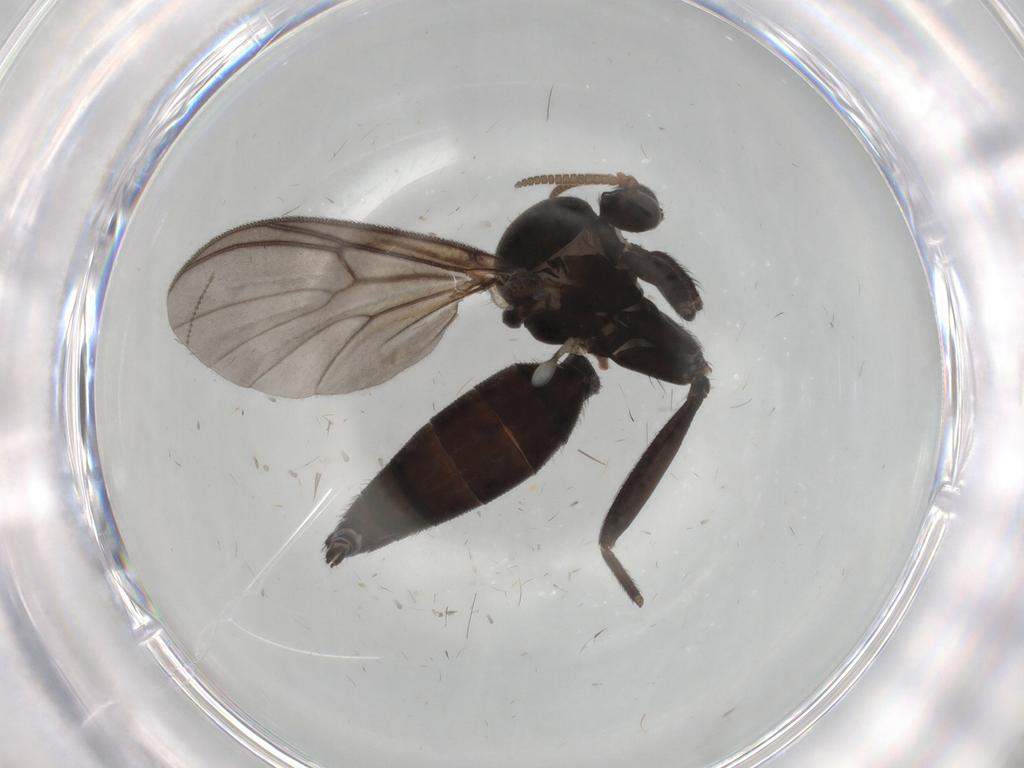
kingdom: Animalia
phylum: Arthropoda
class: Insecta
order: Diptera
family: Mycetophilidae
